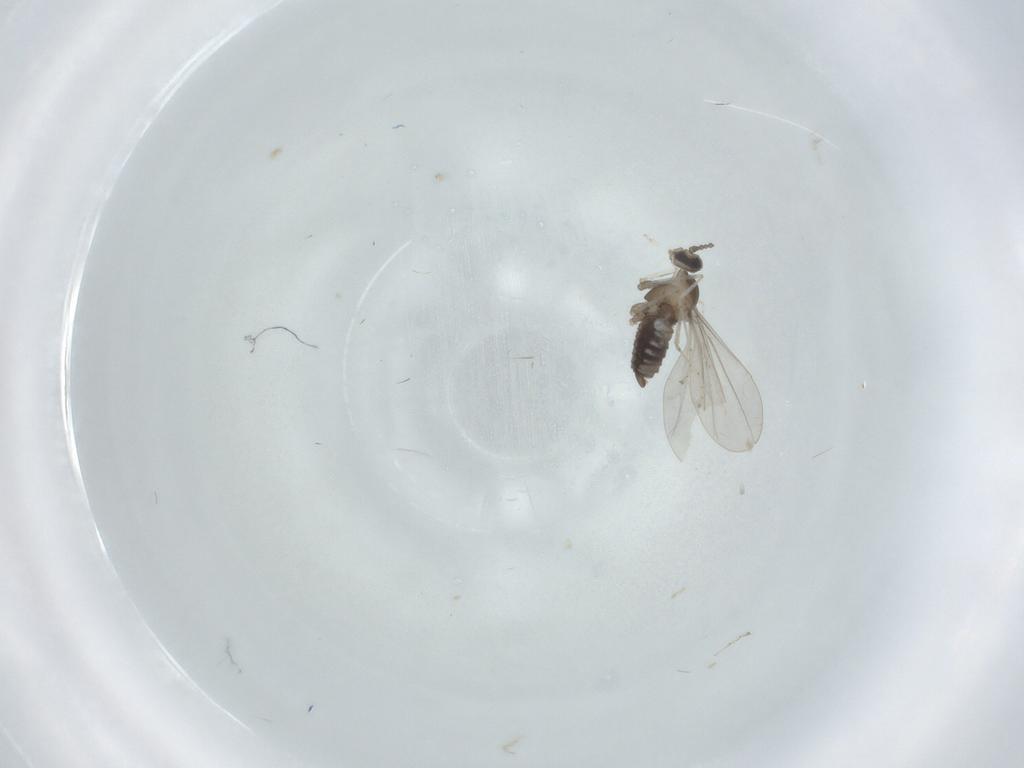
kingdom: Animalia
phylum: Arthropoda
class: Insecta
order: Diptera
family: Cecidomyiidae
